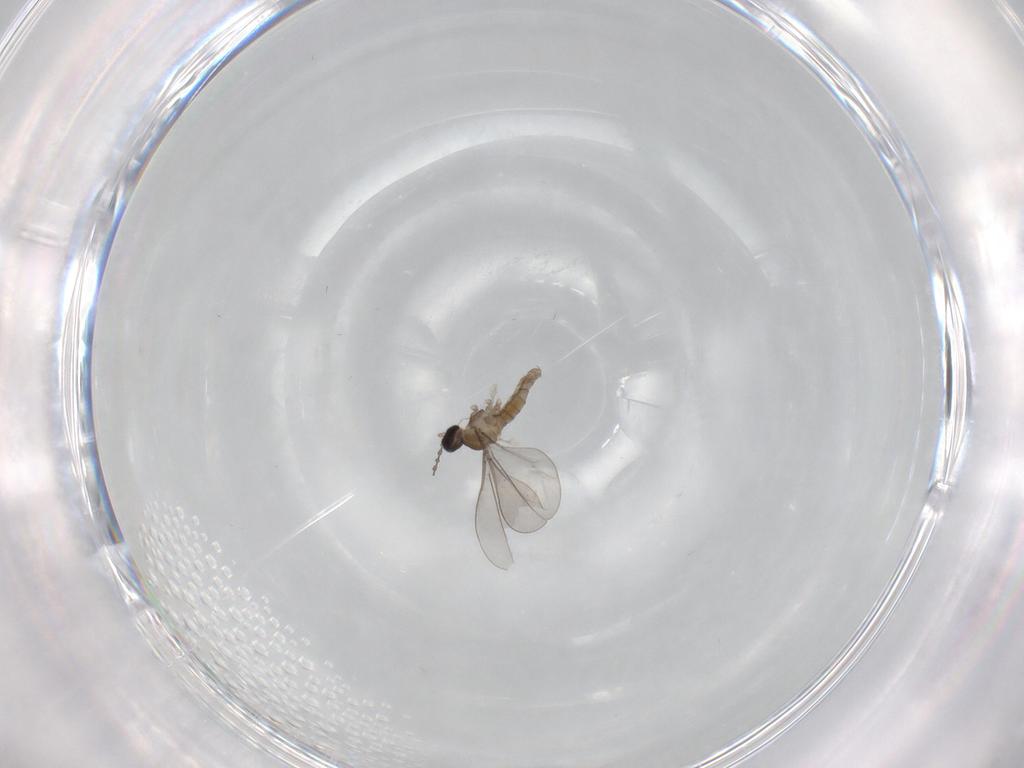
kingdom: Animalia
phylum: Arthropoda
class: Insecta
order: Diptera
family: Cecidomyiidae
